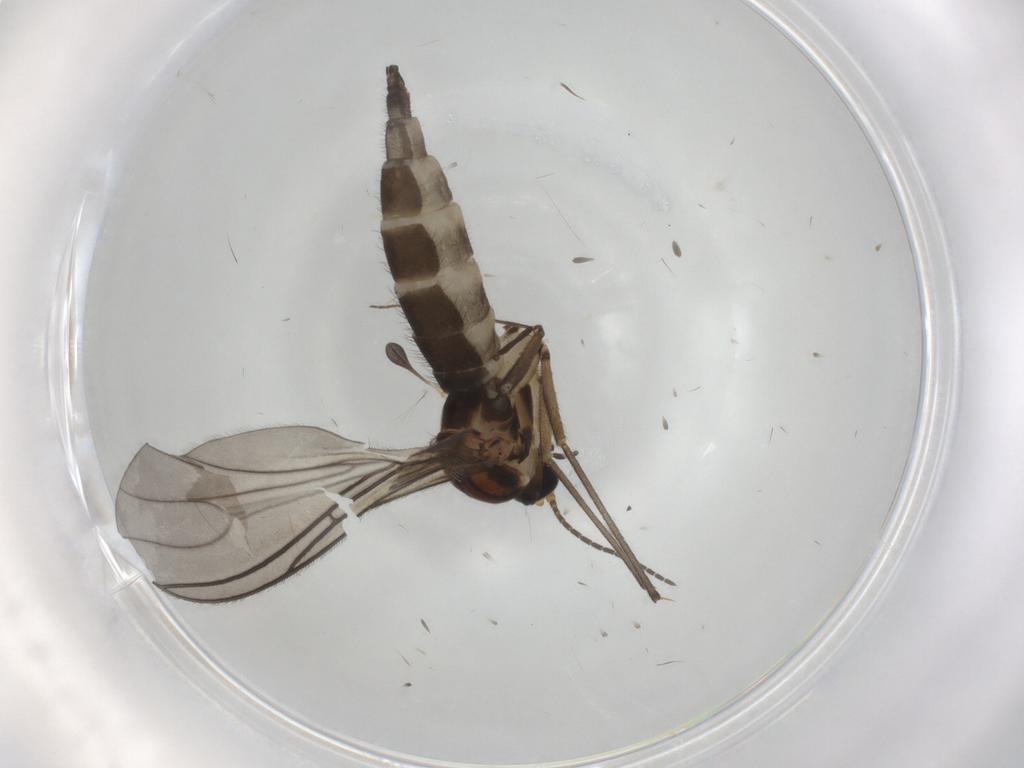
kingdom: Animalia
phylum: Arthropoda
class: Insecta
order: Diptera
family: Sciaridae
